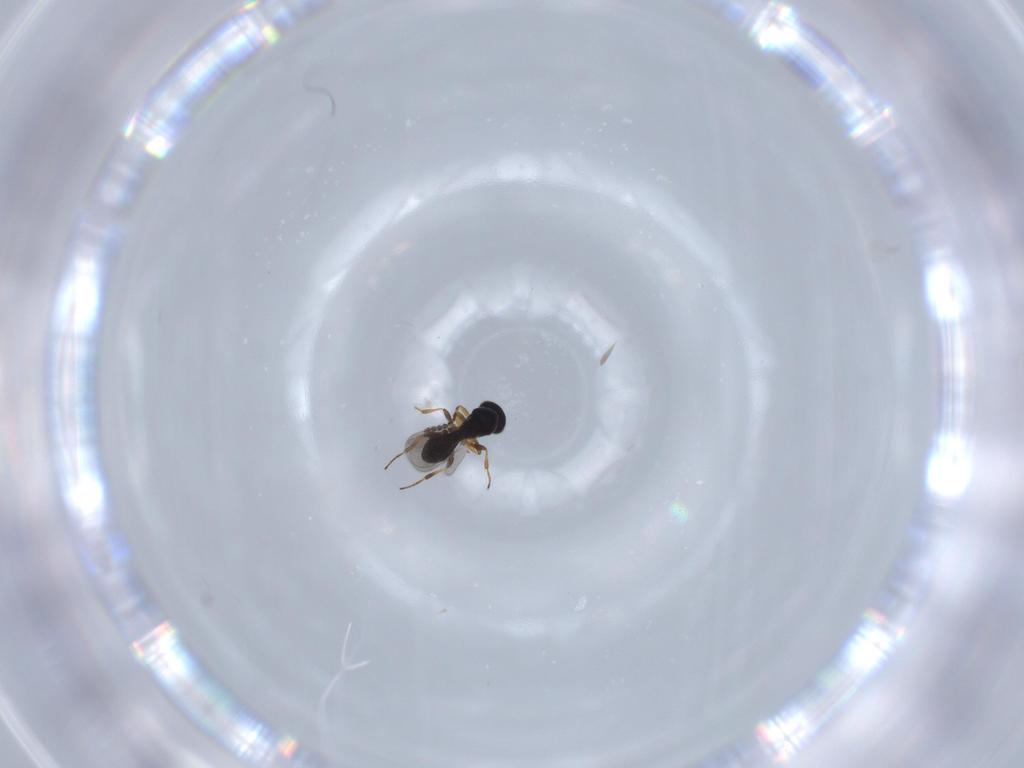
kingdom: Animalia
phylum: Arthropoda
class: Insecta
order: Hymenoptera
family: Platygastridae
